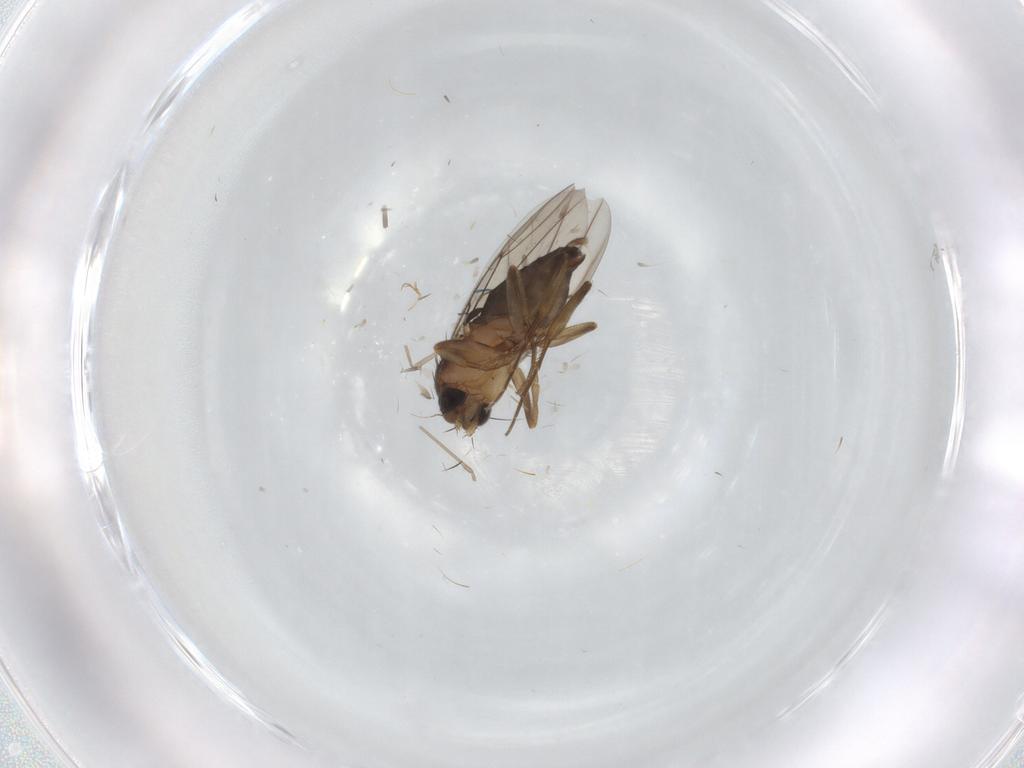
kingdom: Animalia
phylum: Arthropoda
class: Insecta
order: Diptera
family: Phoridae
